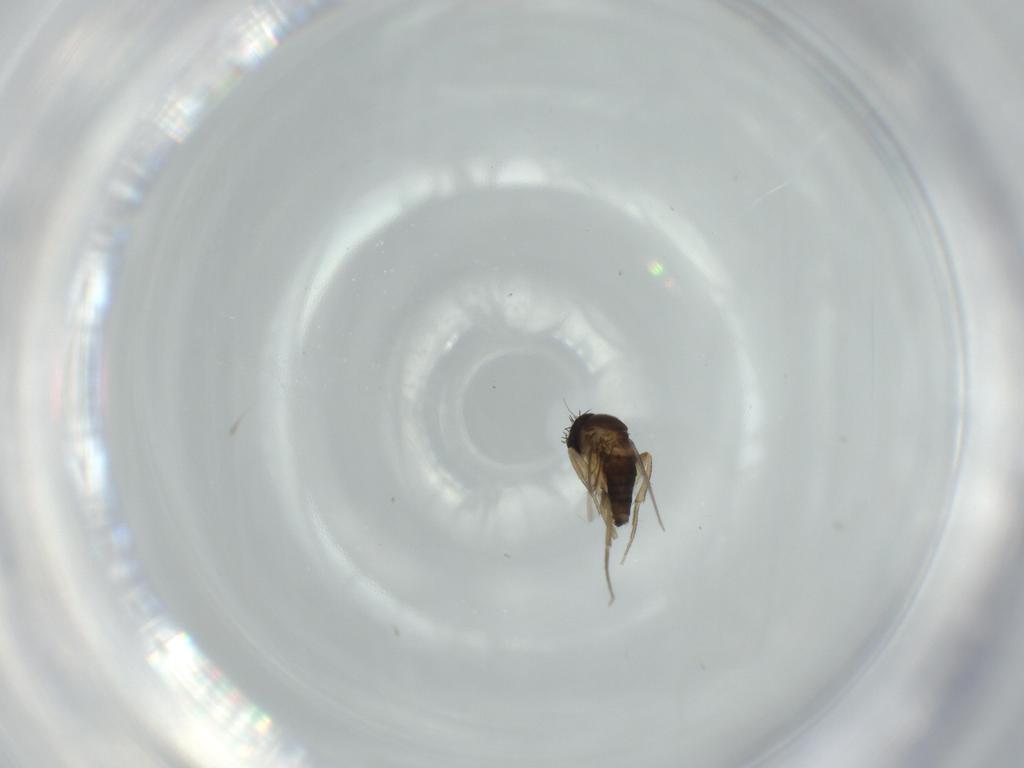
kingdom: Animalia
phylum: Arthropoda
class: Insecta
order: Diptera
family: Phoridae
